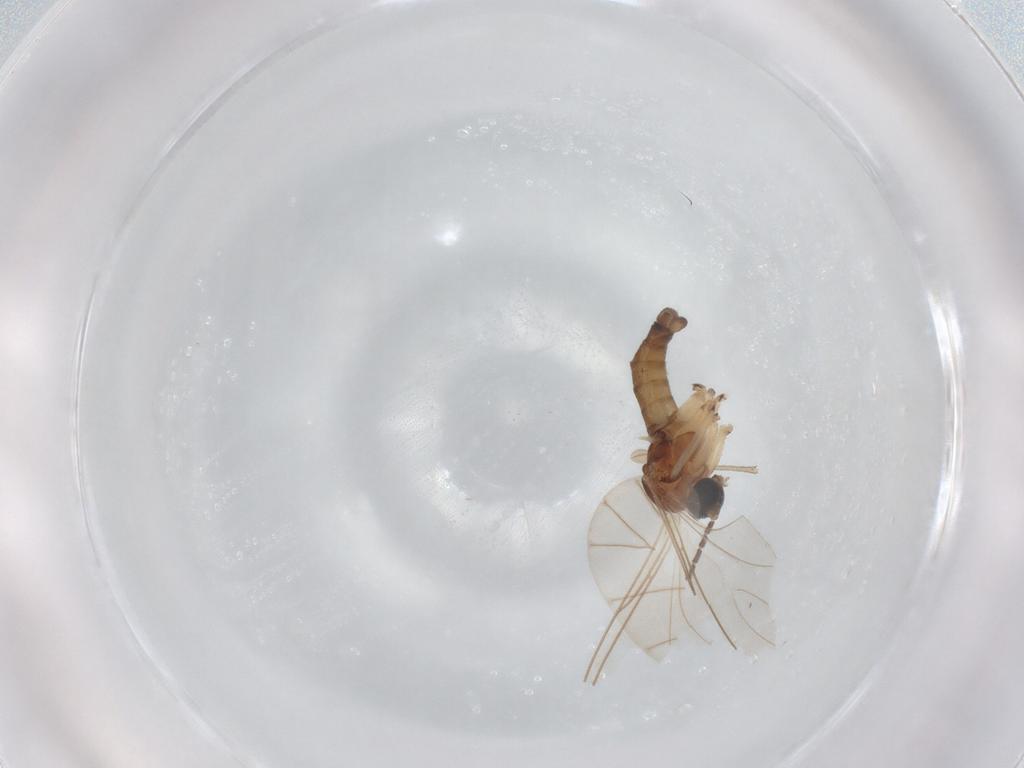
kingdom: Animalia
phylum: Arthropoda
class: Insecta
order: Diptera
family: Sciaridae
